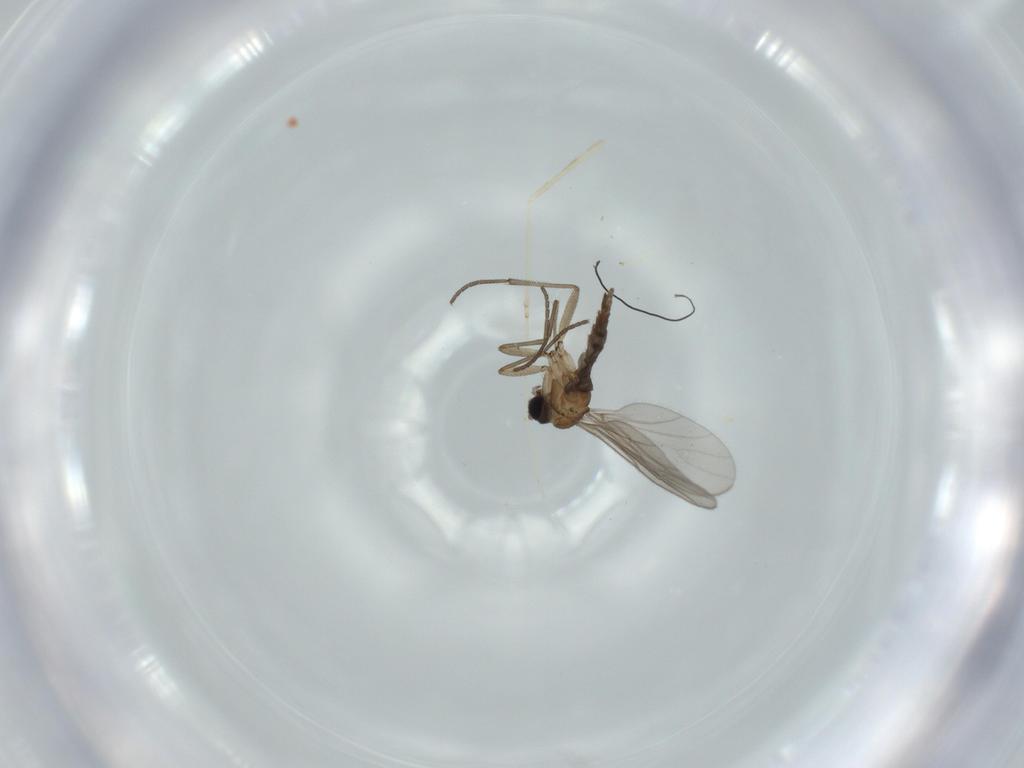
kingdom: Animalia
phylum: Arthropoda
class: Insecta
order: Diptera
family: Sciaridae
